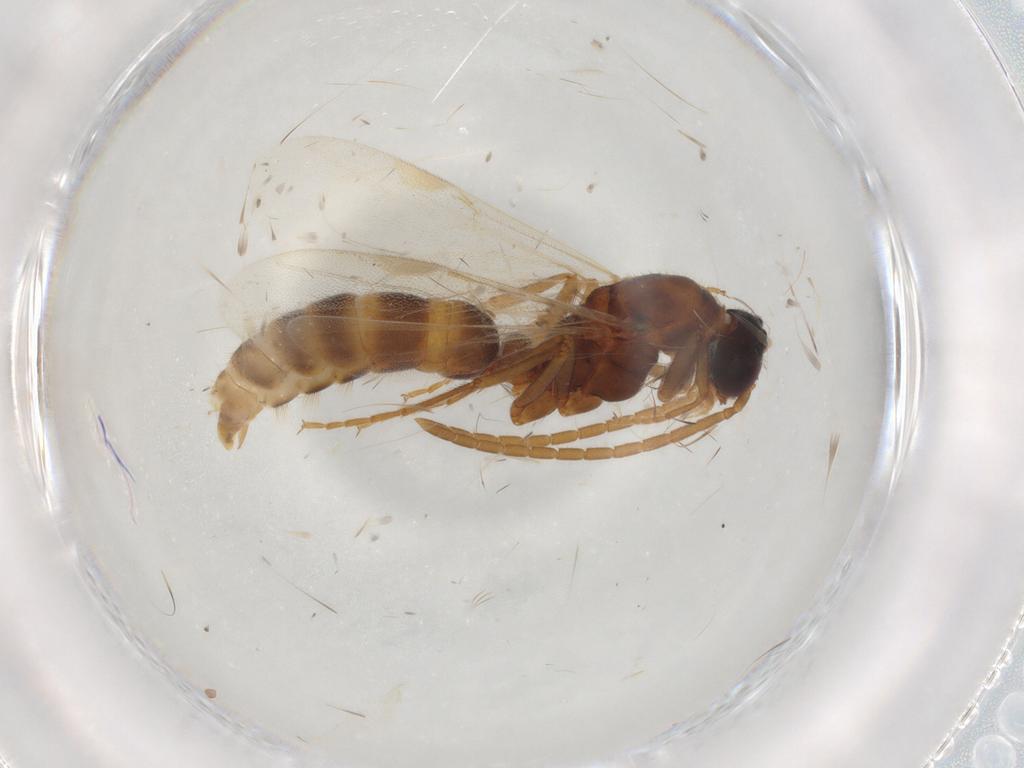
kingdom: Animalia
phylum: Arthropoda
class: Insecta
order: Hymenoptera
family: Formicidae
